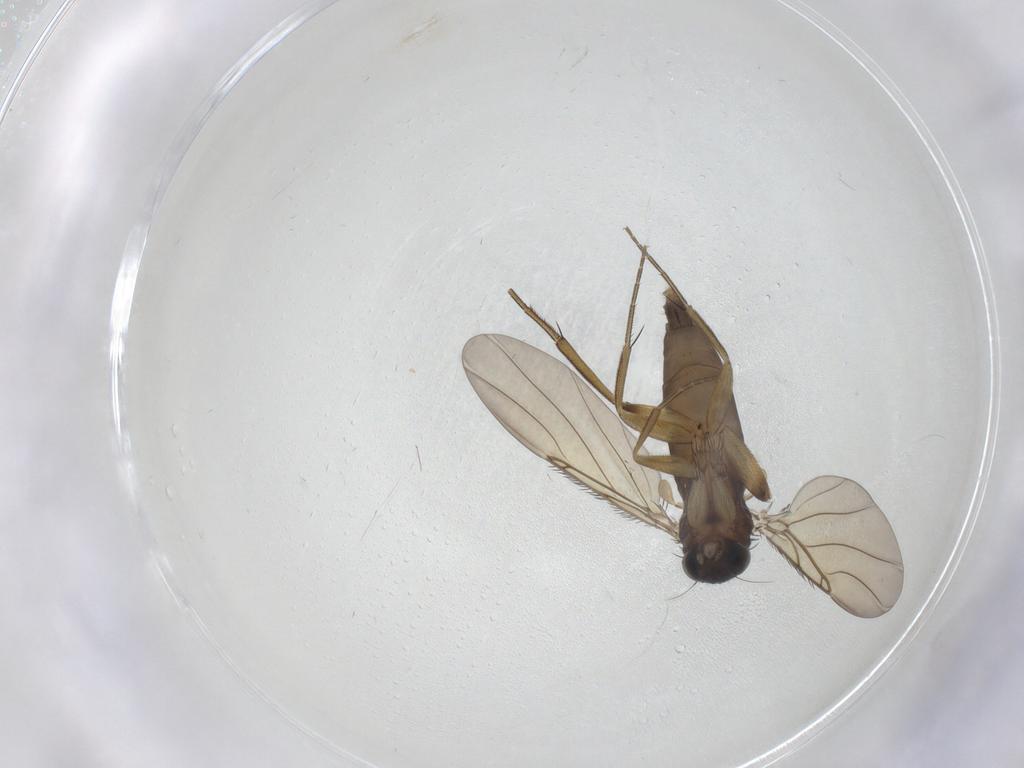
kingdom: Animalia
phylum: Arthropoda
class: Insecta
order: Diptera
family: Phoridae
